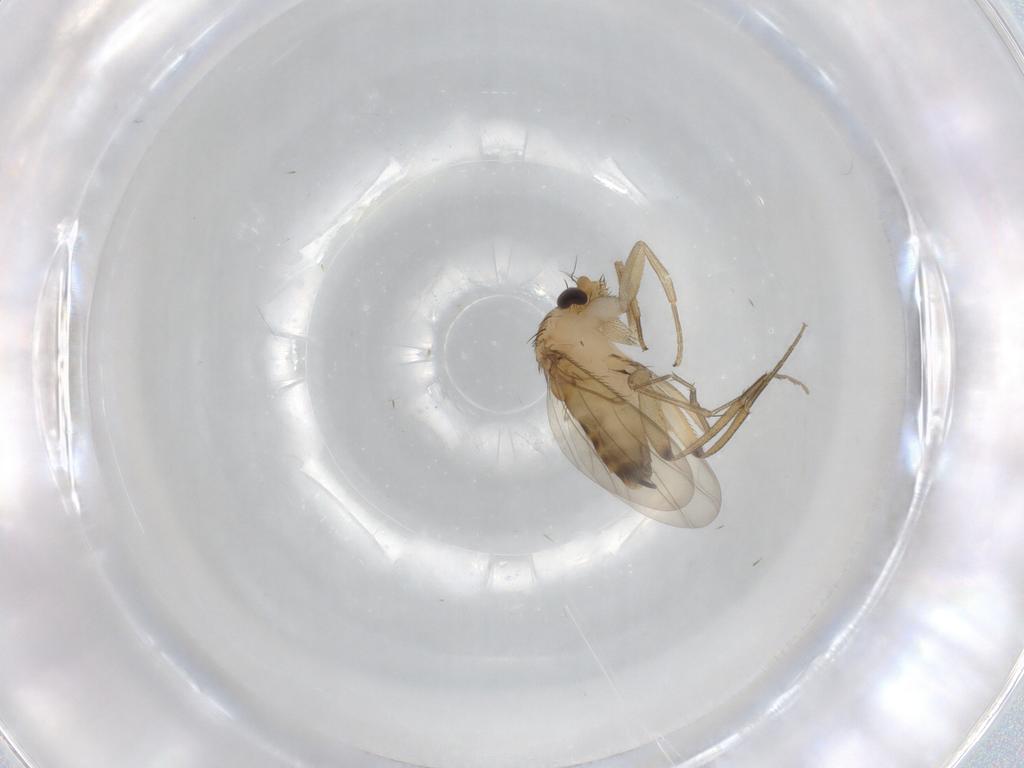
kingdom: Animalia
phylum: Arthropoda
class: Insecta
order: Diptera
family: Phoridae
